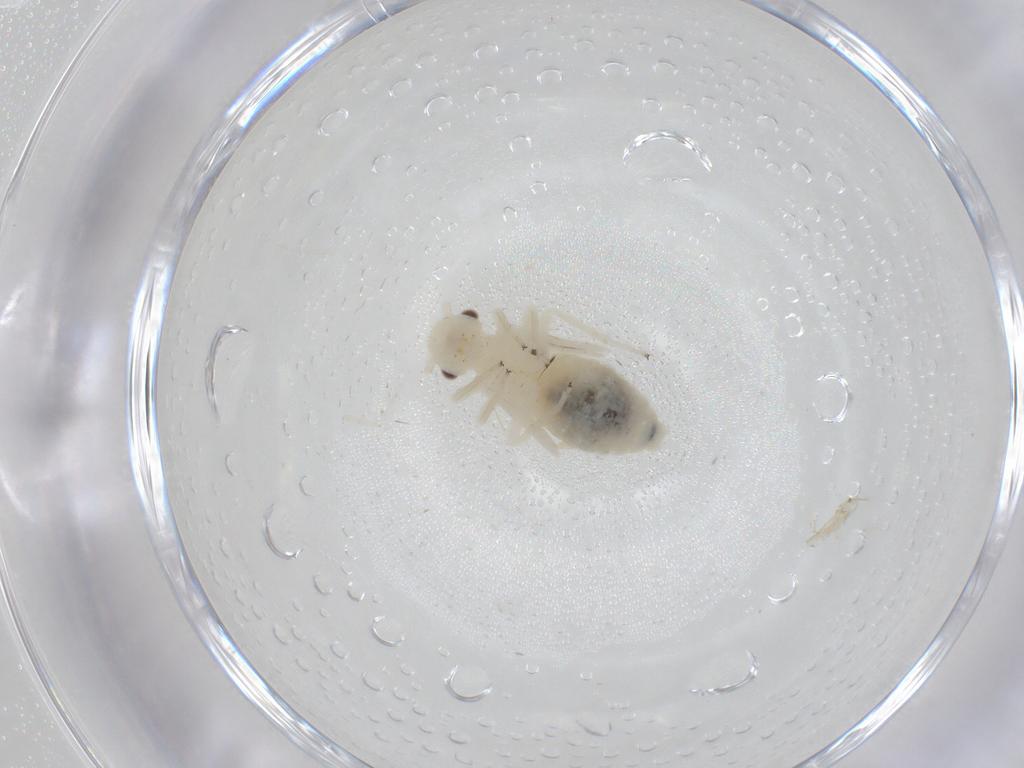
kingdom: Animalia
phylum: Arthropoda
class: Insecta
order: Psocodea
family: Caeciliusidae
